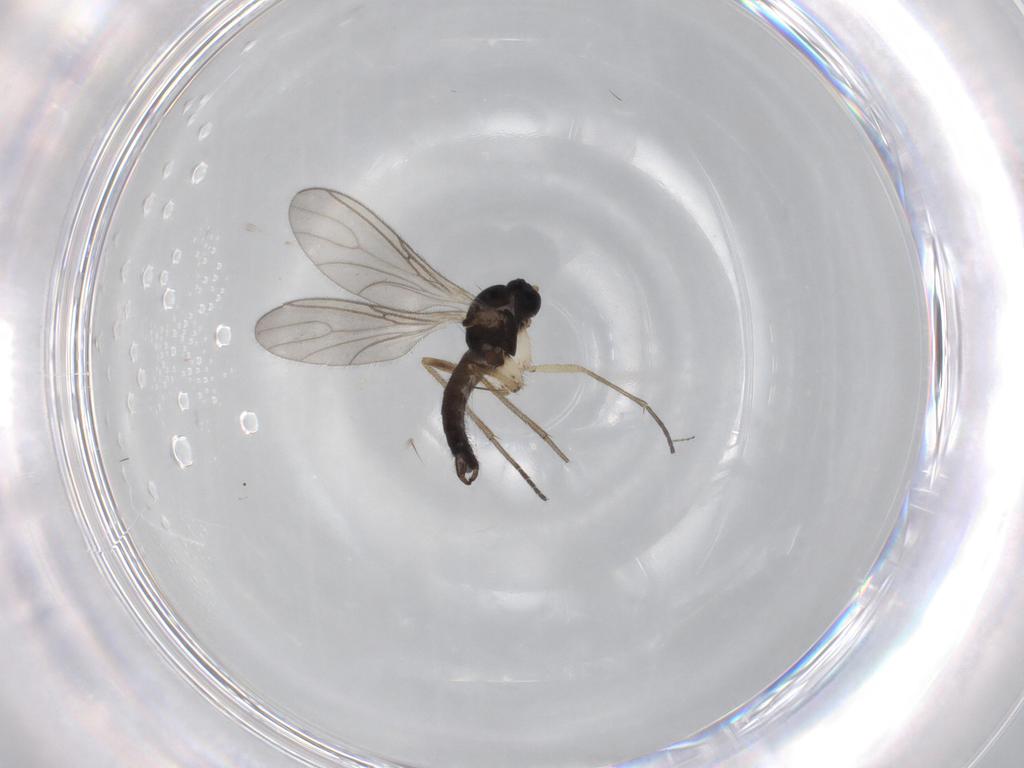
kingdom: Animalia
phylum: Arthropoda
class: Insecta
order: Diptera
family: Sciaridae
